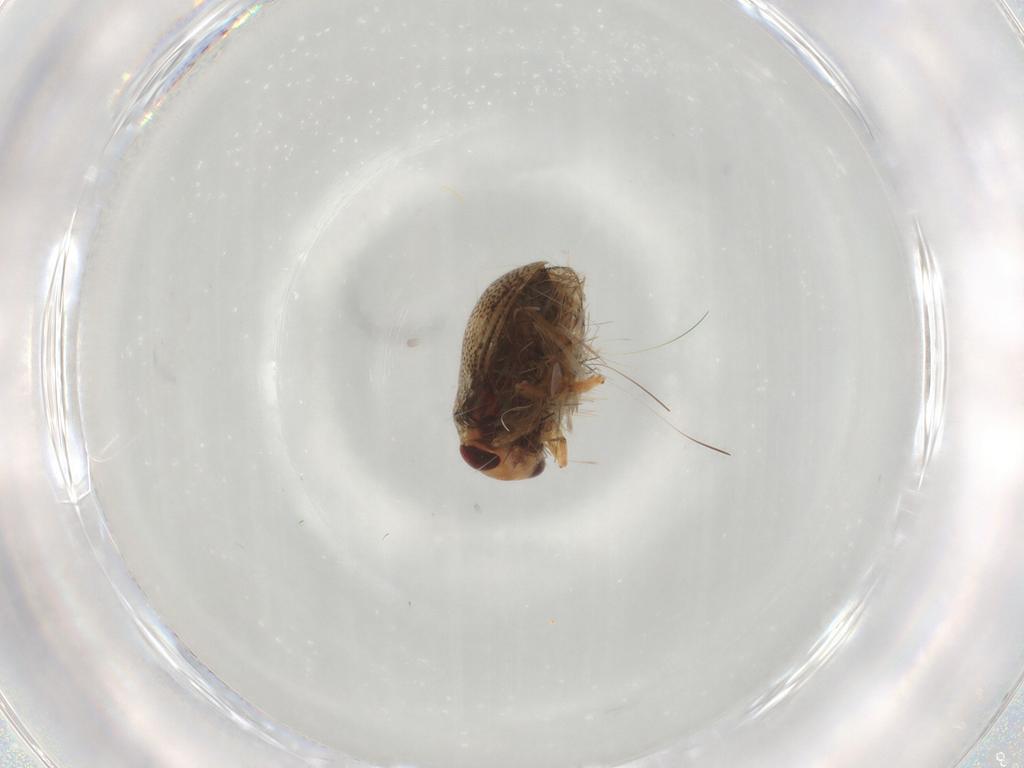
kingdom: Animalia
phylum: Arthropoda
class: Insecta
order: Hemiptera
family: Pleidae
